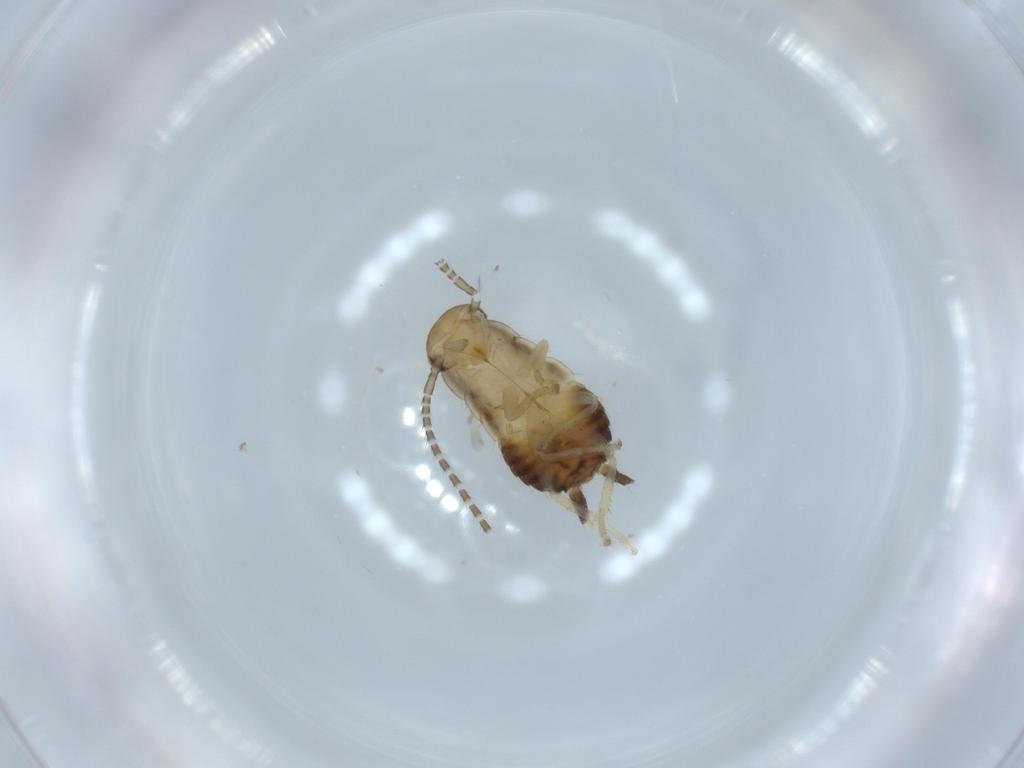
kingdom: Animalia
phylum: Arthropoda
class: Insecta
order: Blattodea
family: Ectobiidae
